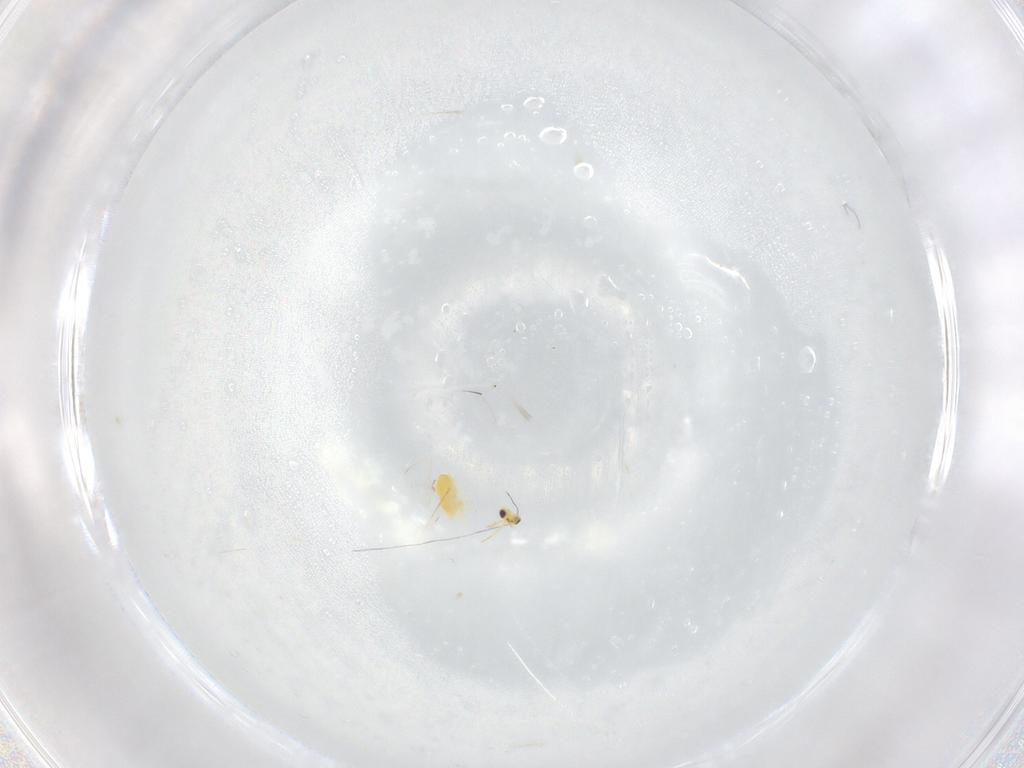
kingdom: Animalia
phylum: Arthropoda
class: Insecta
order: Hymenoptera
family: Aphelinidae
